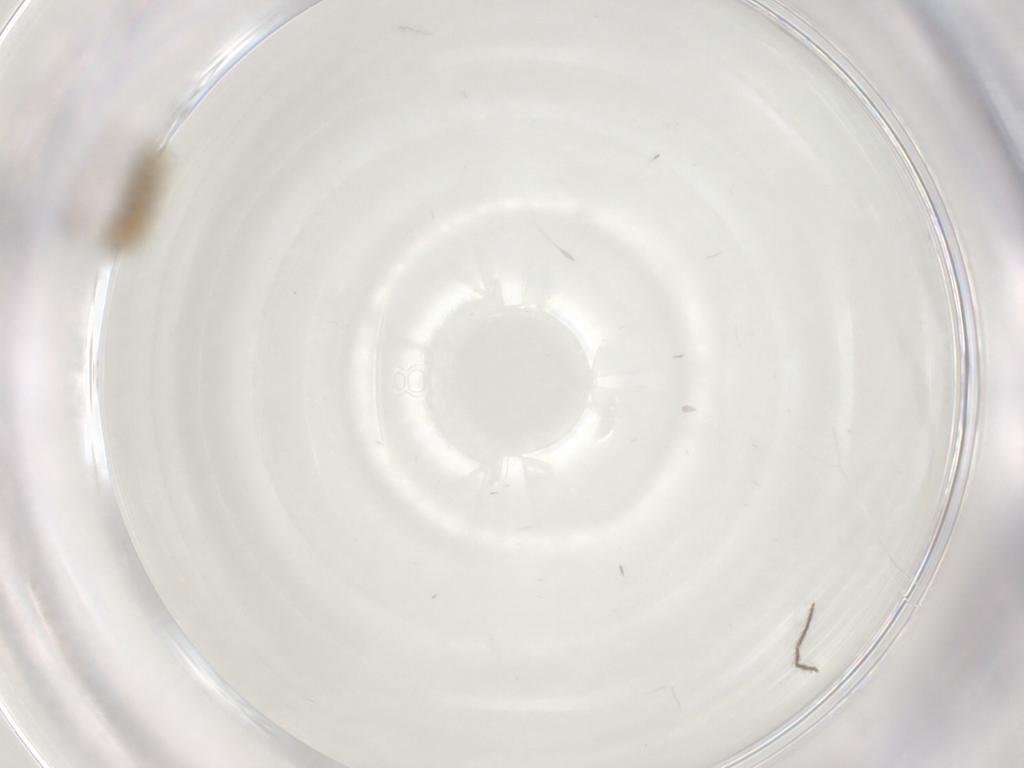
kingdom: Animalia
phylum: Arthropoda
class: Insecta
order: Diptera
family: Ceratopogonidae
